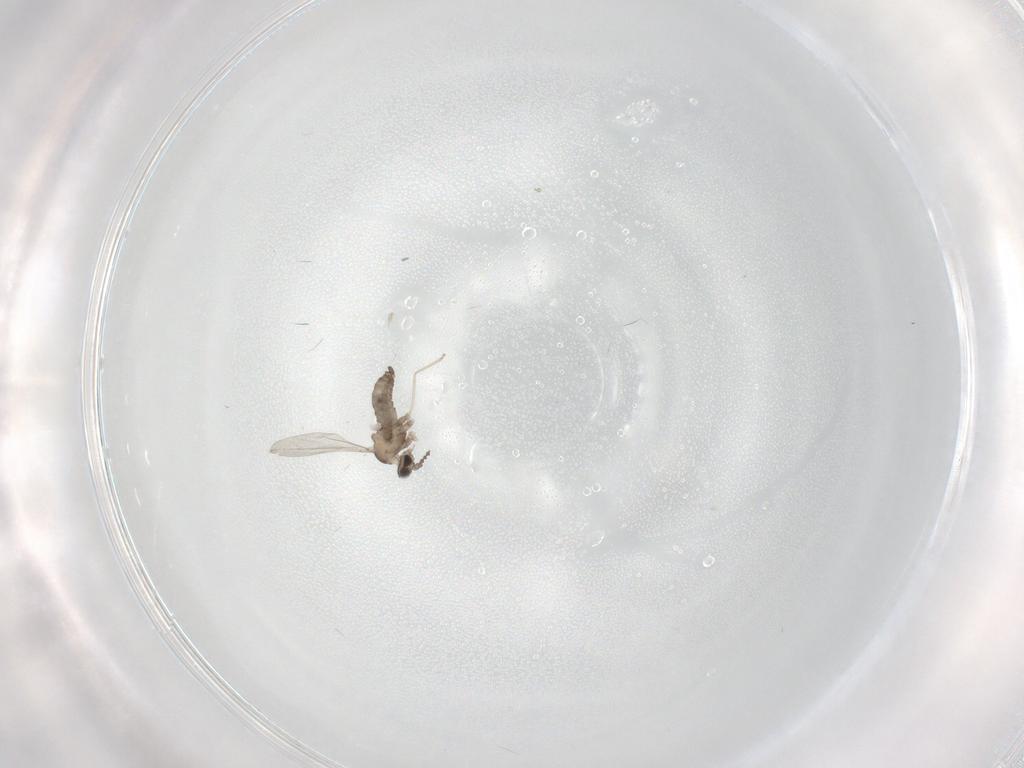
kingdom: Animalia
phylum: Arthropoda
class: Insecta
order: Diptera
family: Cecidomyiidae
